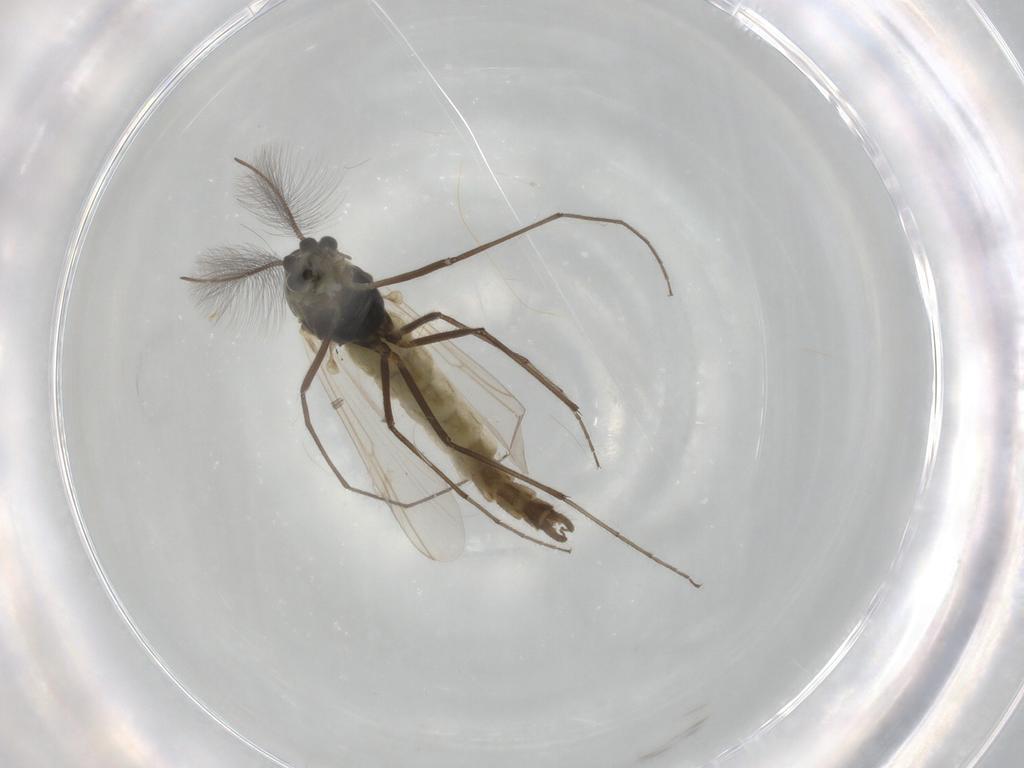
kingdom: Animalia
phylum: Arthropoda
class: Insecta
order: Diptera
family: Chironomidae
